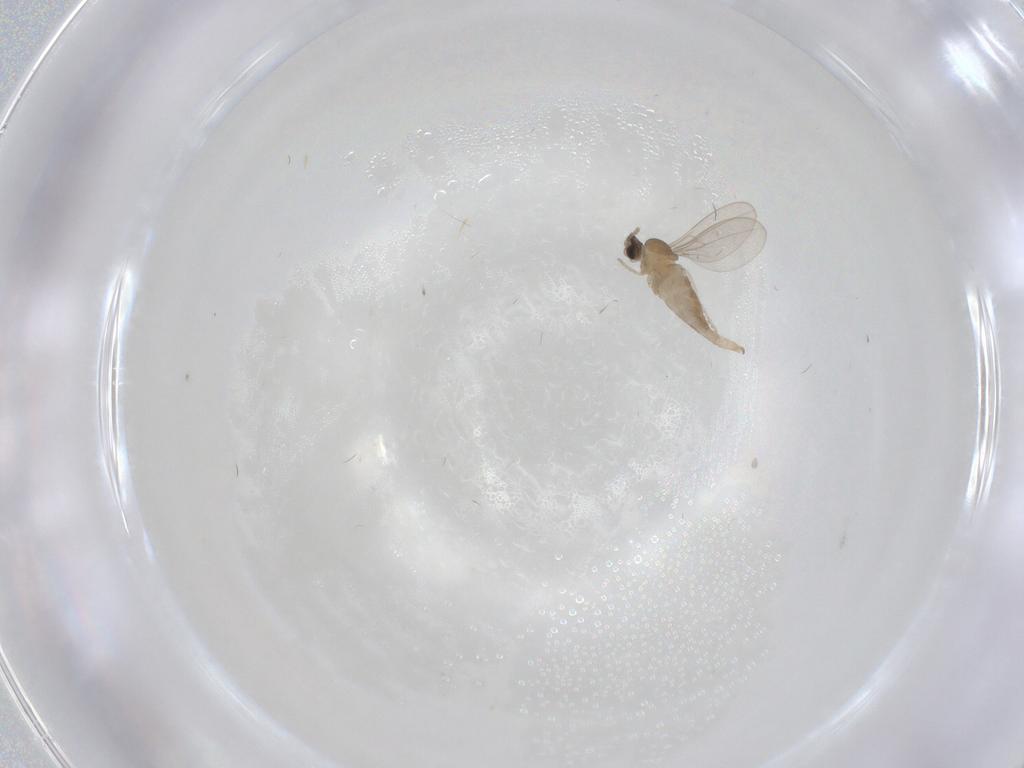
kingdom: Animalia
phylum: Arthropoda
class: Insecta
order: Diptera
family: Cecidomyiidae
